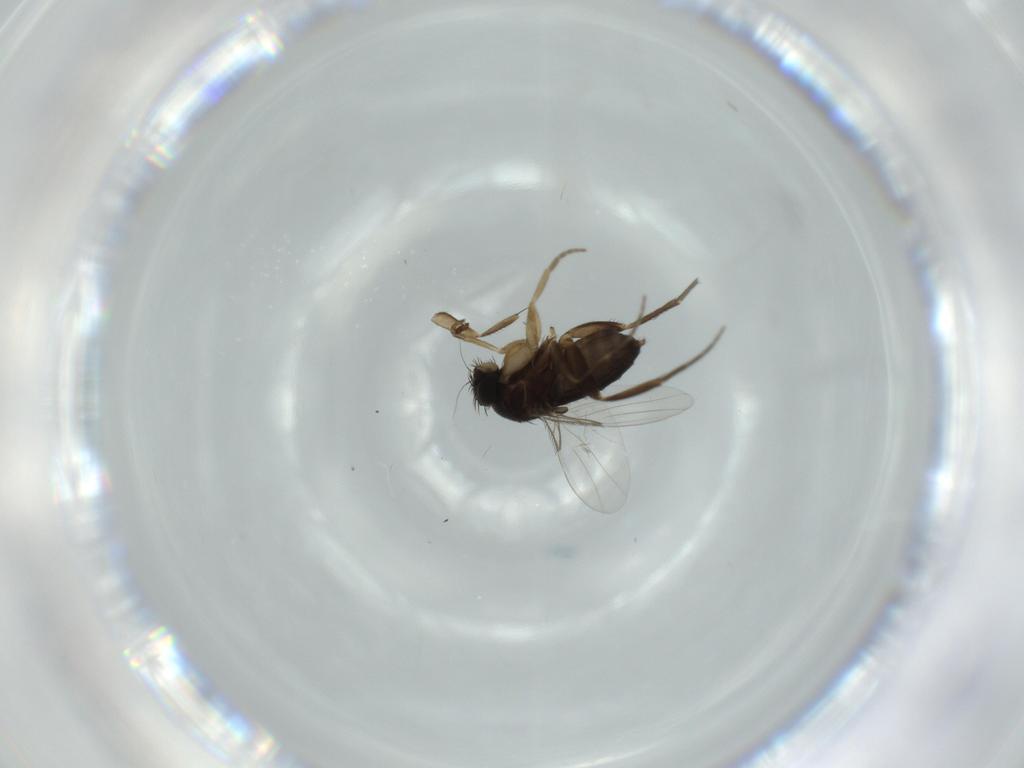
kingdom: Animalia
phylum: Arthropoda
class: Insecta
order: Diptera
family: Phoridae
